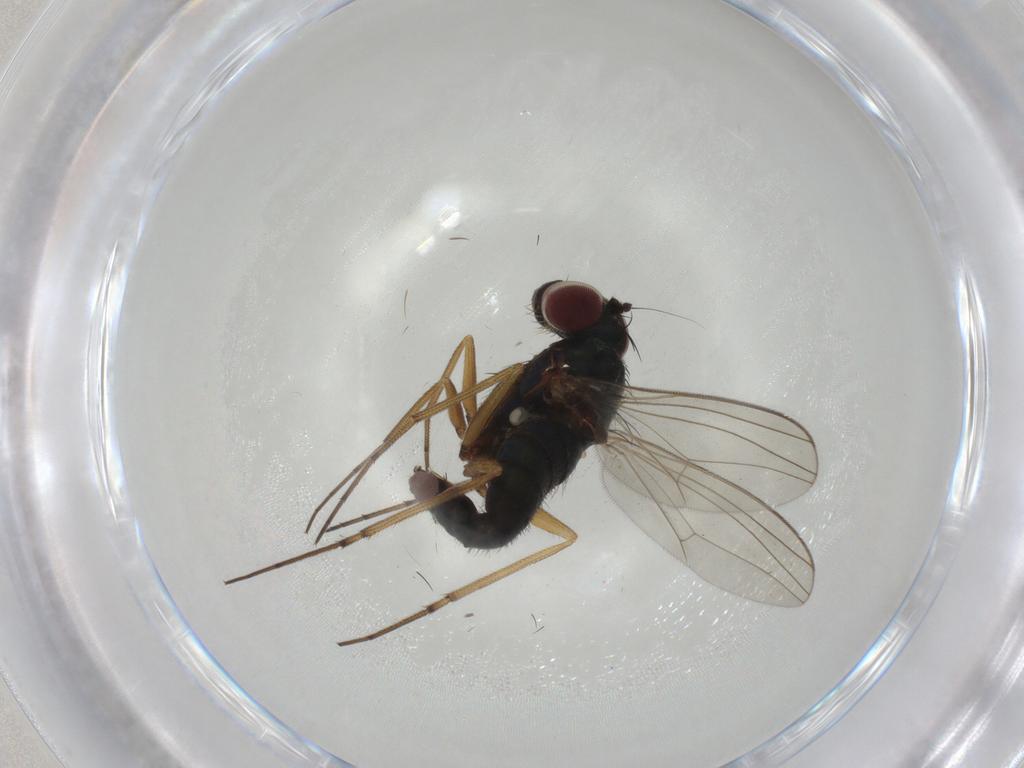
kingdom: Animalia
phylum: Arthropoda
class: Insecta
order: Diptera
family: Dolichopodidae
